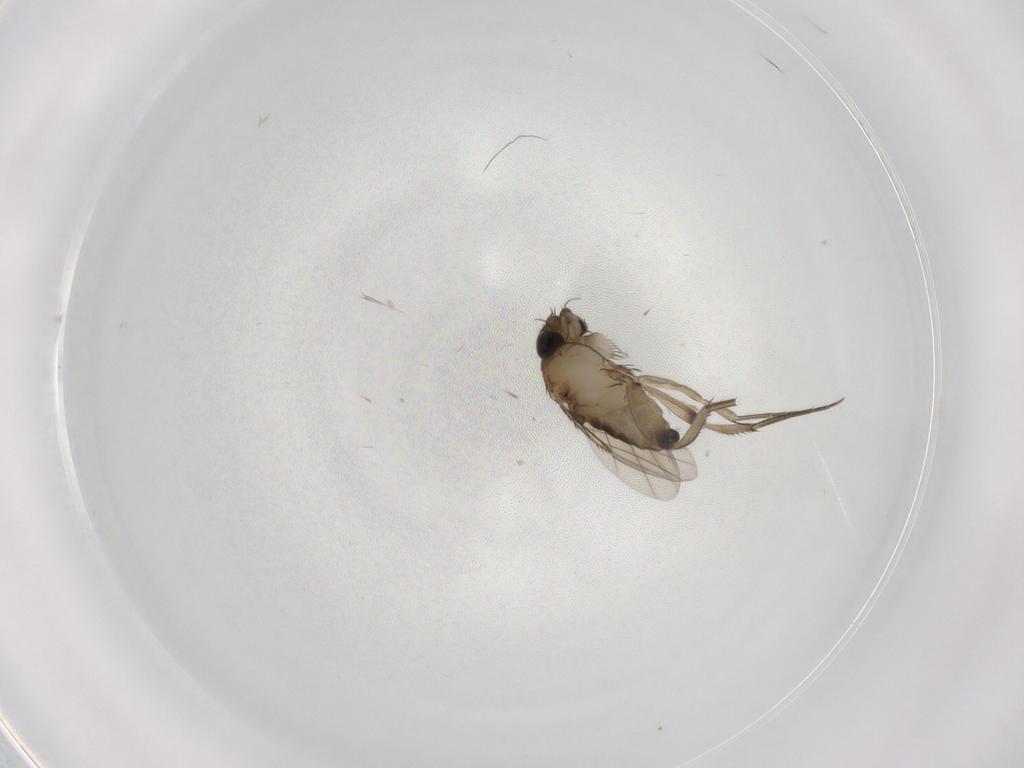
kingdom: Animalia
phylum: Arthropoda
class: Insecta
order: Diptera
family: Phoridae
